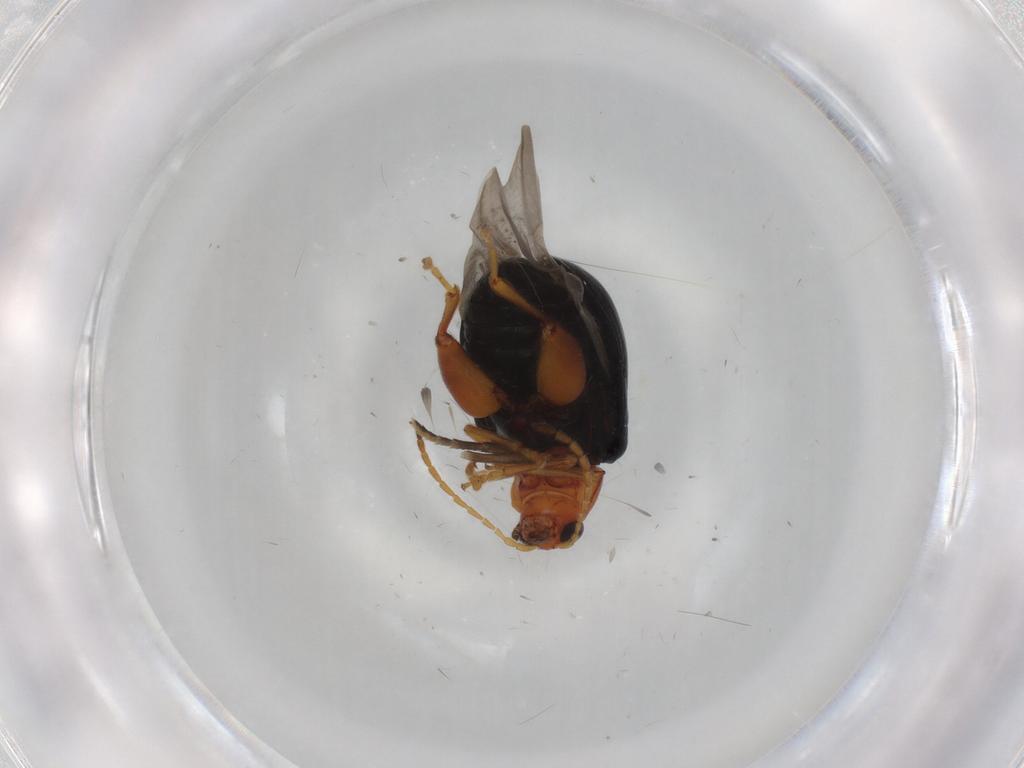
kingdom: Animalia
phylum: Arthropoda
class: Insecta
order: Coleoptera
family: Chrysomelidae
